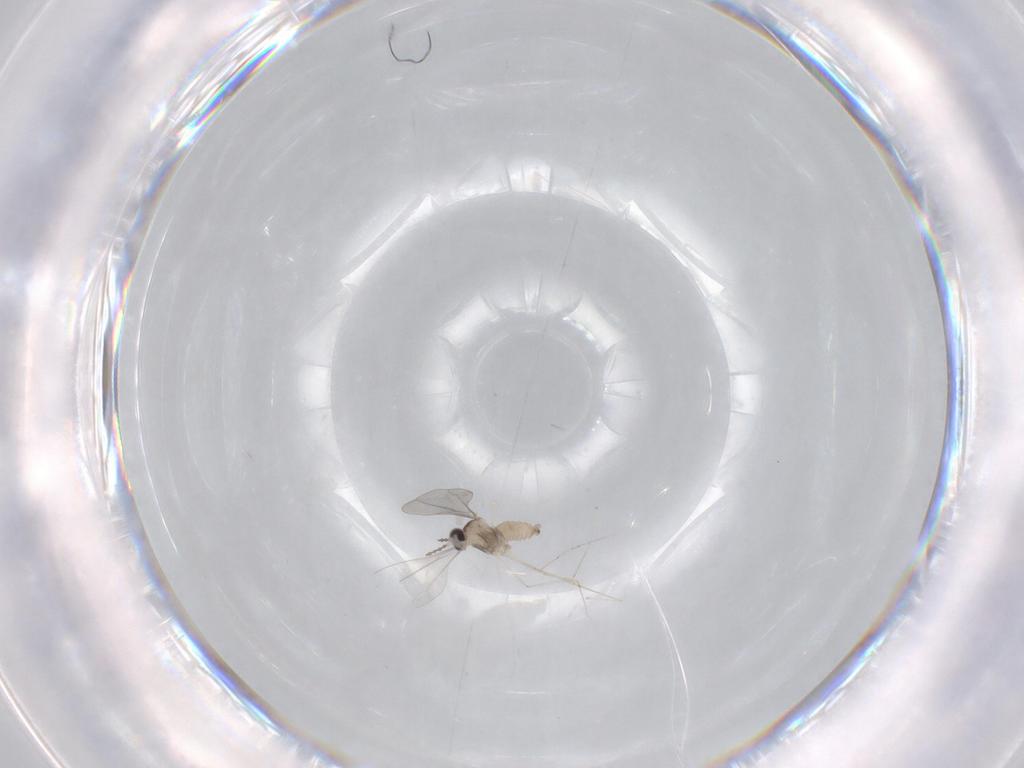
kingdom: Animalia
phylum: Arthropoda
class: Insecta
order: Diptera
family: Cecidomyiidae
